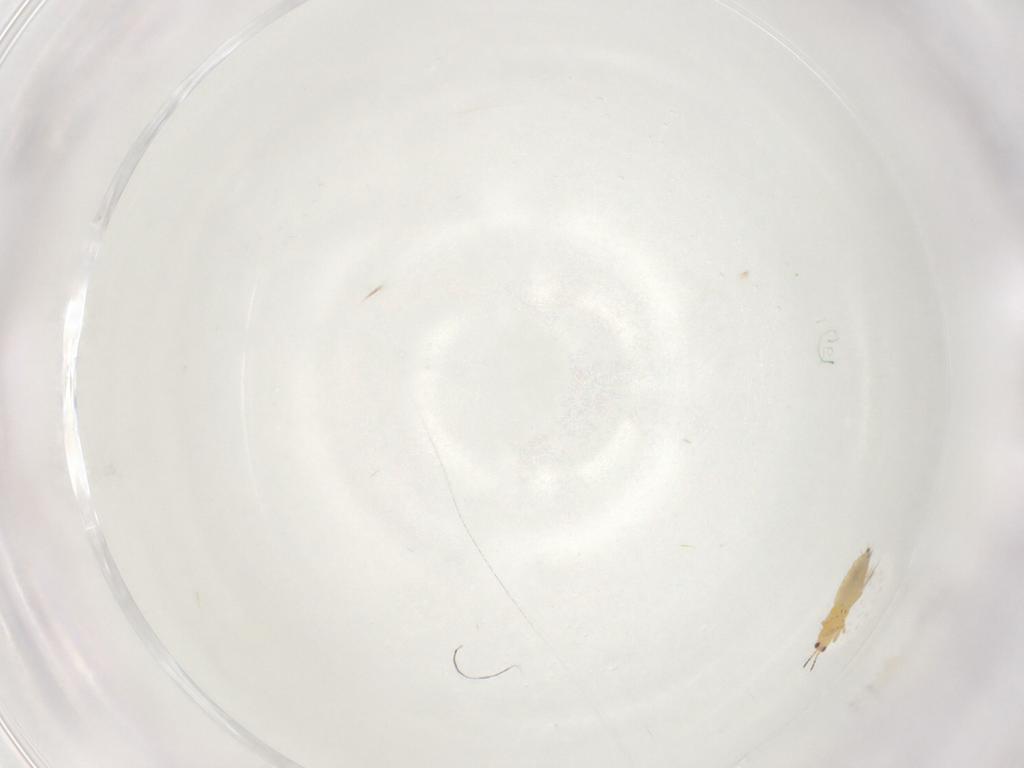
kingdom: Animalia
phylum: Arthropoda
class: Insecta
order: Thysanoptera
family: Thripidae
